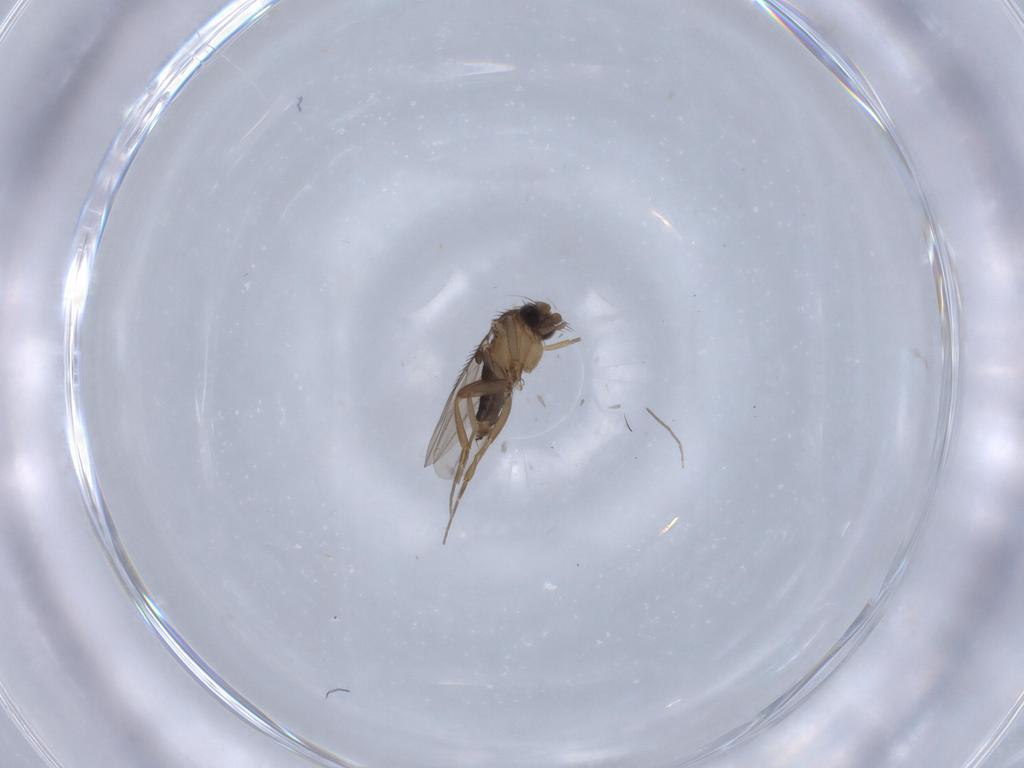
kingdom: Animalia
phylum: Arthropoda
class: Insecta
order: Diptera
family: Phoridae
